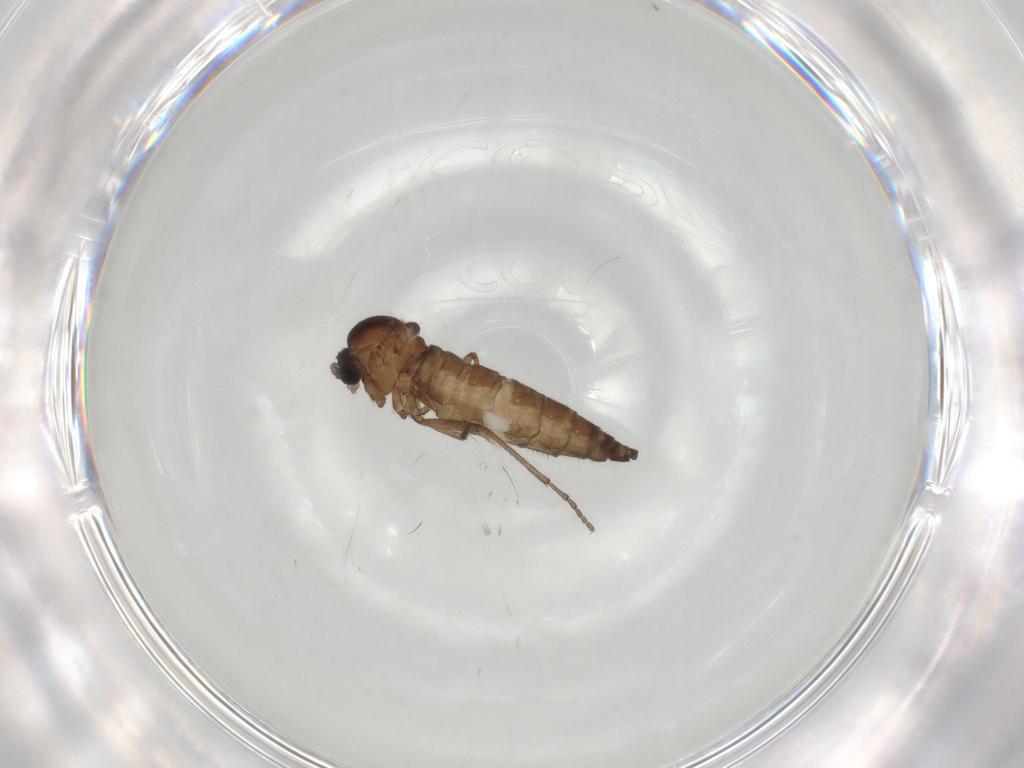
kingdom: Animalia
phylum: Arthropoda
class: Insecta
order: Diptera
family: Sciaridae
